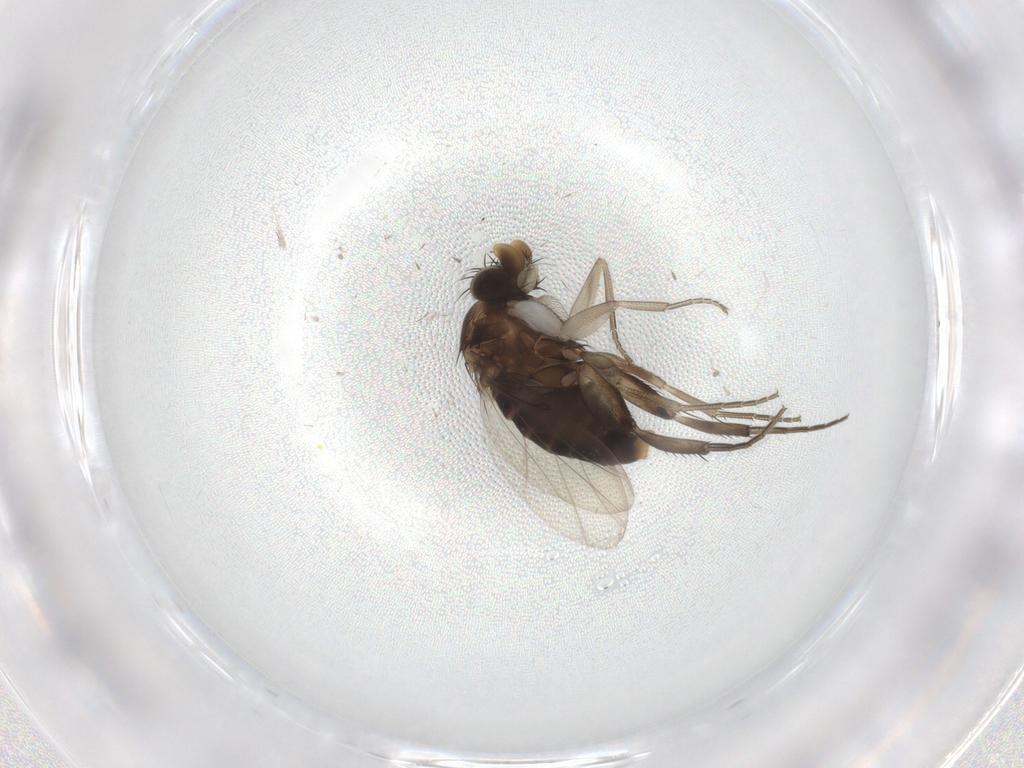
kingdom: Animalia
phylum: Arthropoda
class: Insecta
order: Diptera
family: Phoridae
